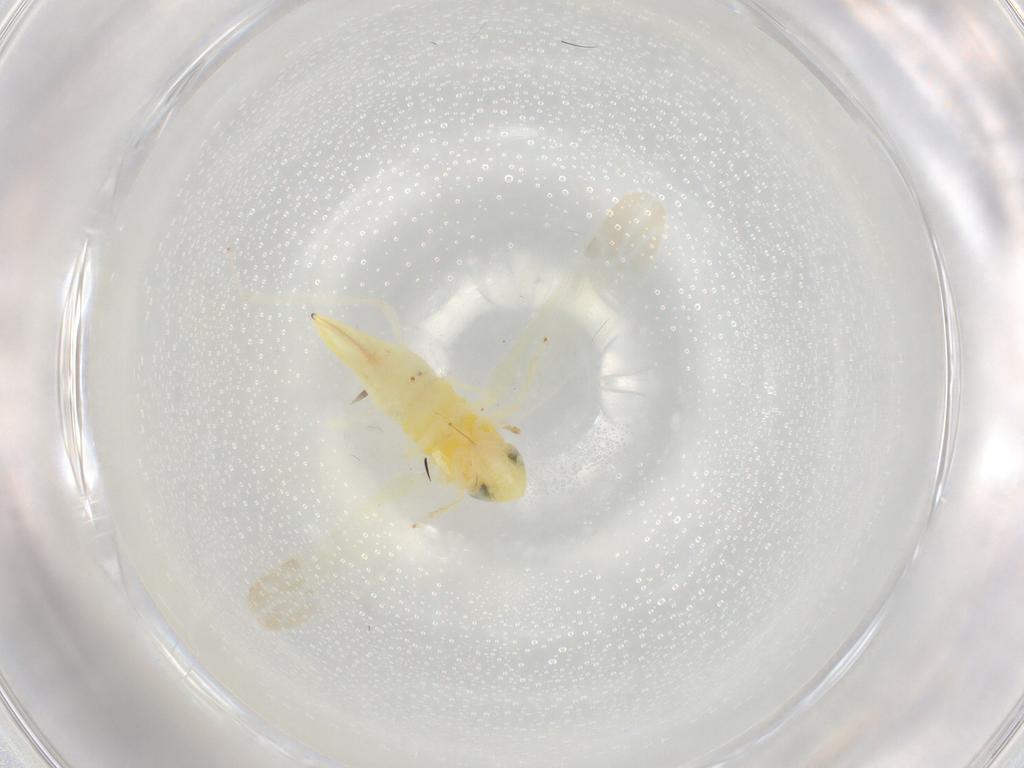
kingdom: Animalia
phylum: Arthropoda
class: Insecta
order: Hemiptera
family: Cicadellidae
